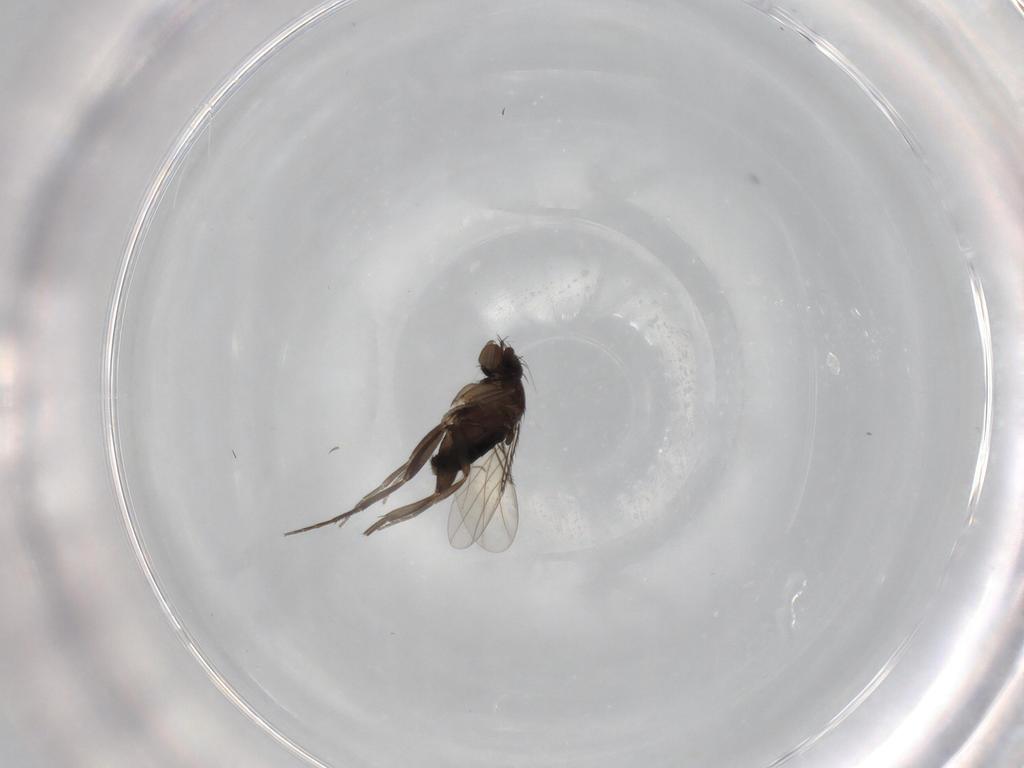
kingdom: Animalia
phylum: Arthropoda
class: Insecta
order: Diptera
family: Chironomidae
